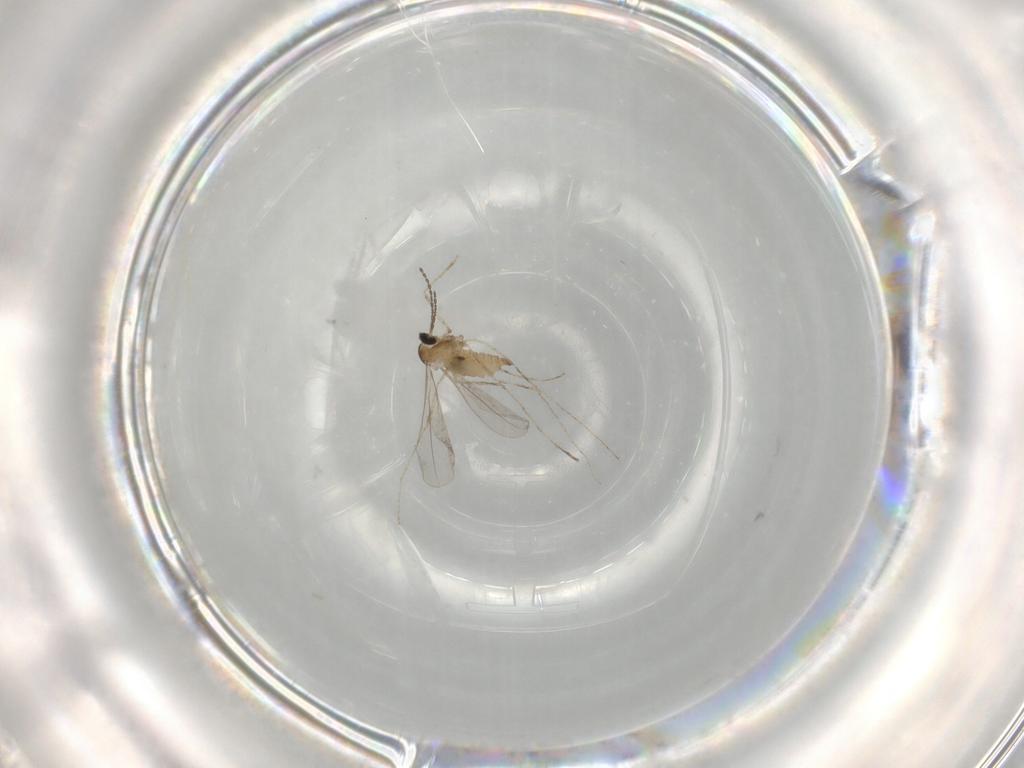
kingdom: Animalia
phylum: Arthropoda
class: Insecta
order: Diptera
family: Cecidomyiidae
